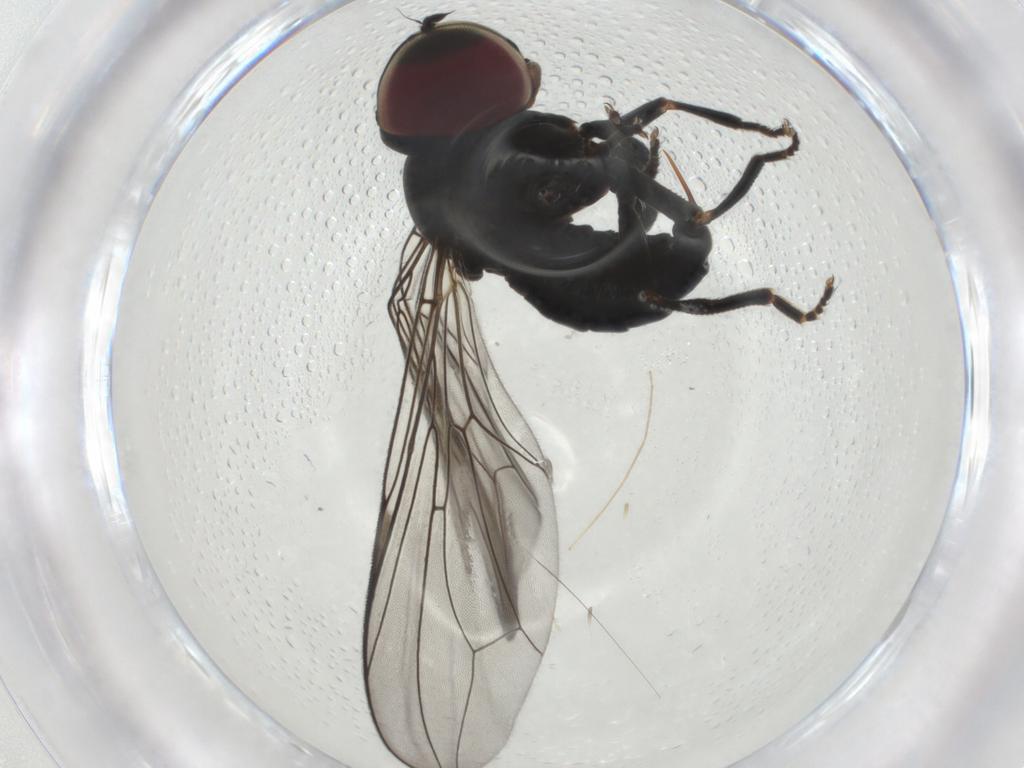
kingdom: Animalia
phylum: Arthropoda
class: Insecta
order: Diptera
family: Pipunculidae
